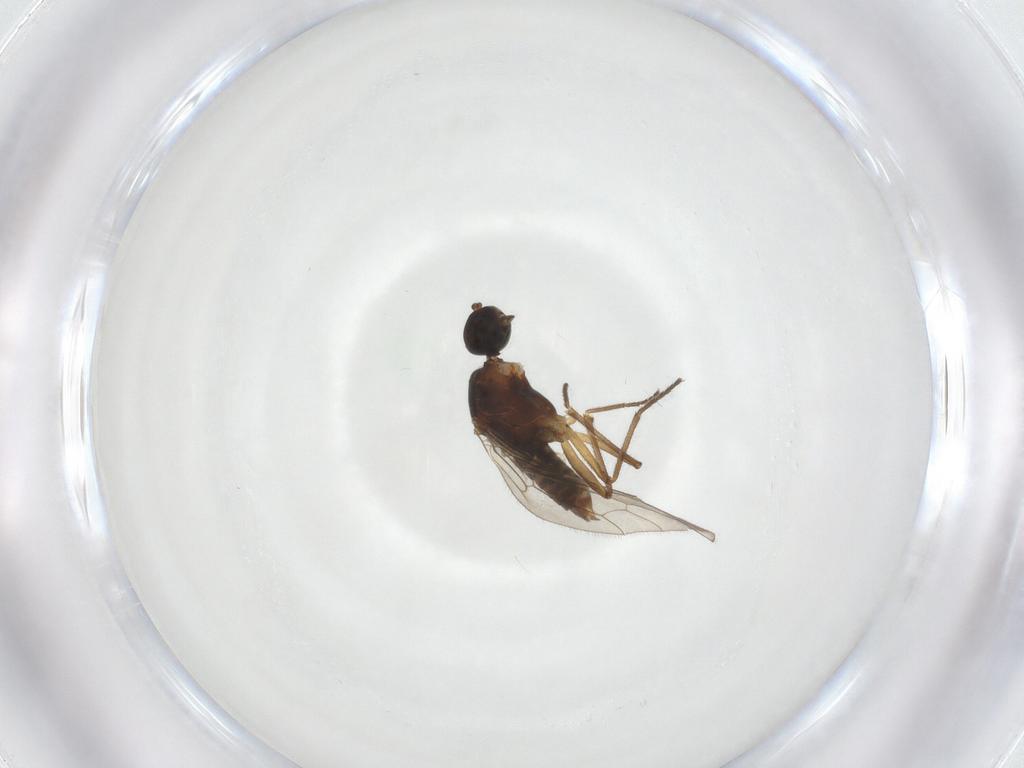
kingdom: Animalia
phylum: Arthropoda
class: Insecta
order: Diptera
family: Empididae
